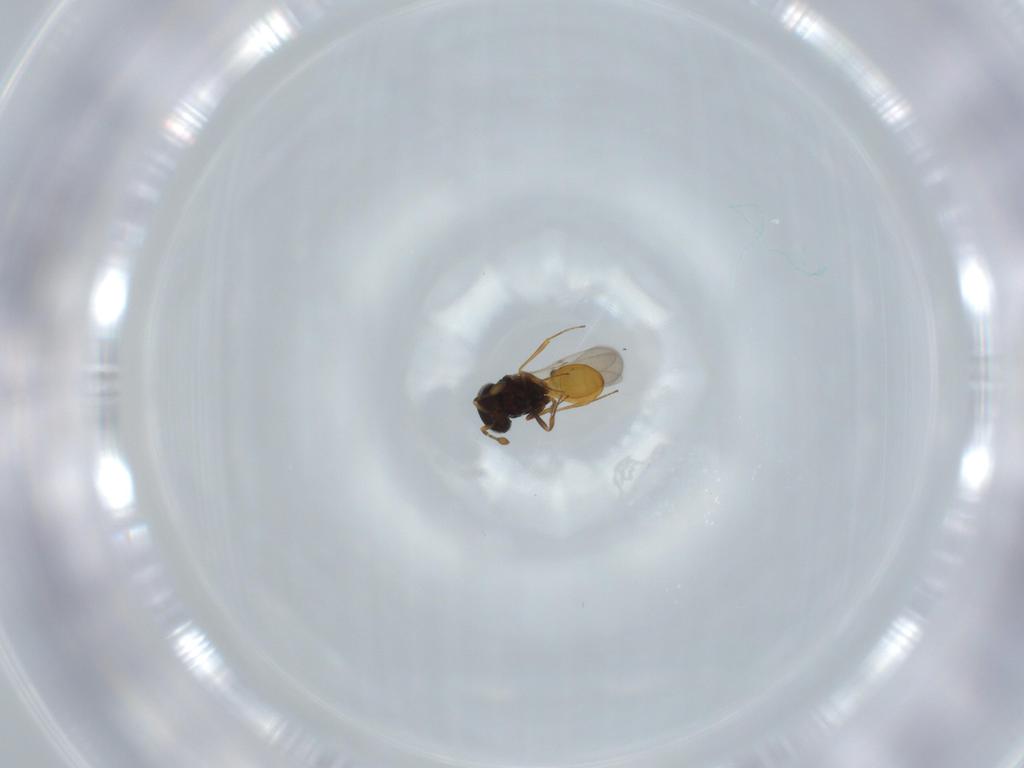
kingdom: Animalia
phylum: Arthropoda
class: Insecta
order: Hymenoptera
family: Scelionidae
